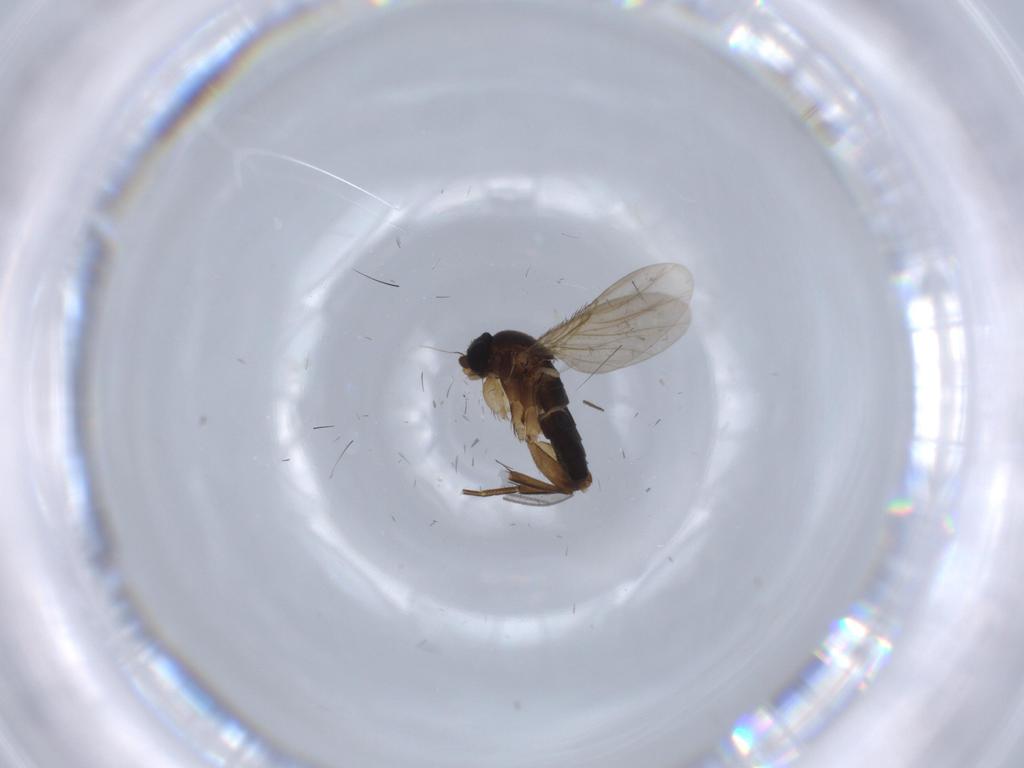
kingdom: Animalia
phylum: Arthropoda
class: Insecta
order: Diptera
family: Phoridae
